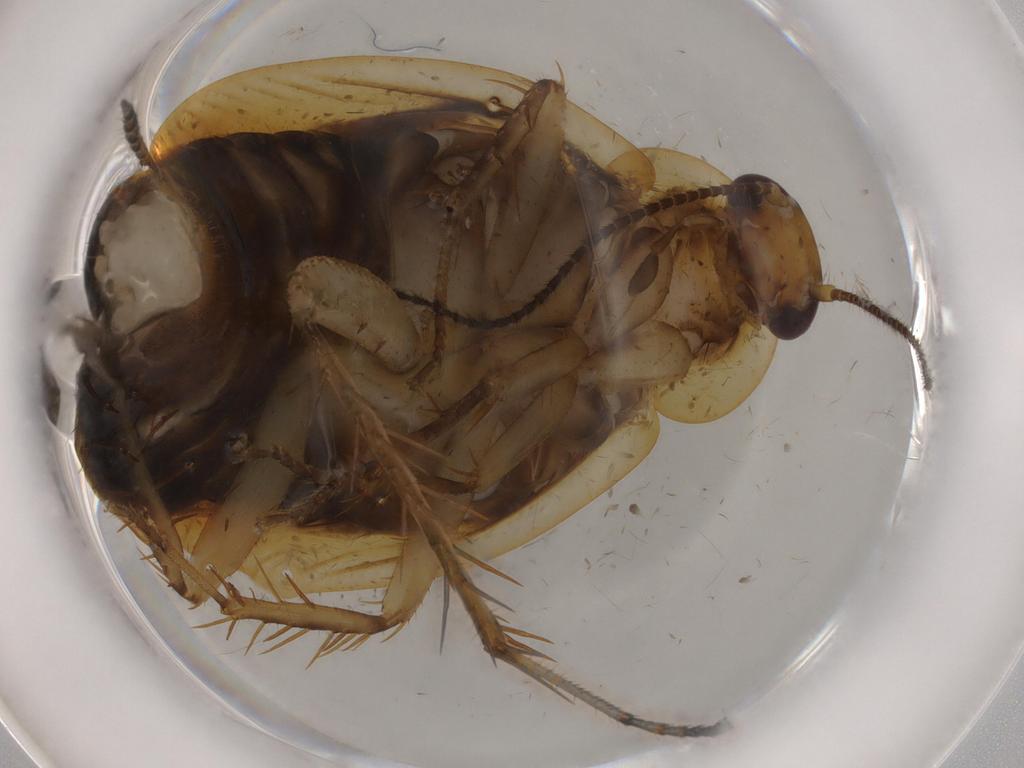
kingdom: Animalia
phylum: Arthropoda
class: Insecta
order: Blattodea
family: Ectobiidae
